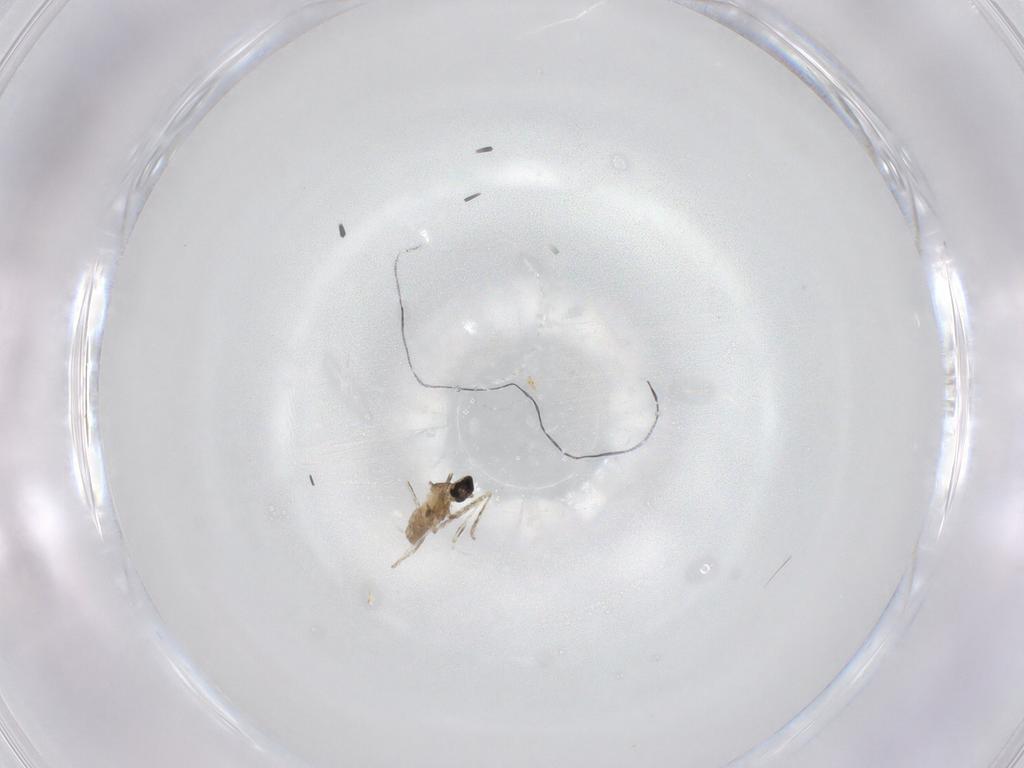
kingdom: Animalia
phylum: Arthropoda
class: Insecta
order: Diptera
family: Cecidomyiidae
